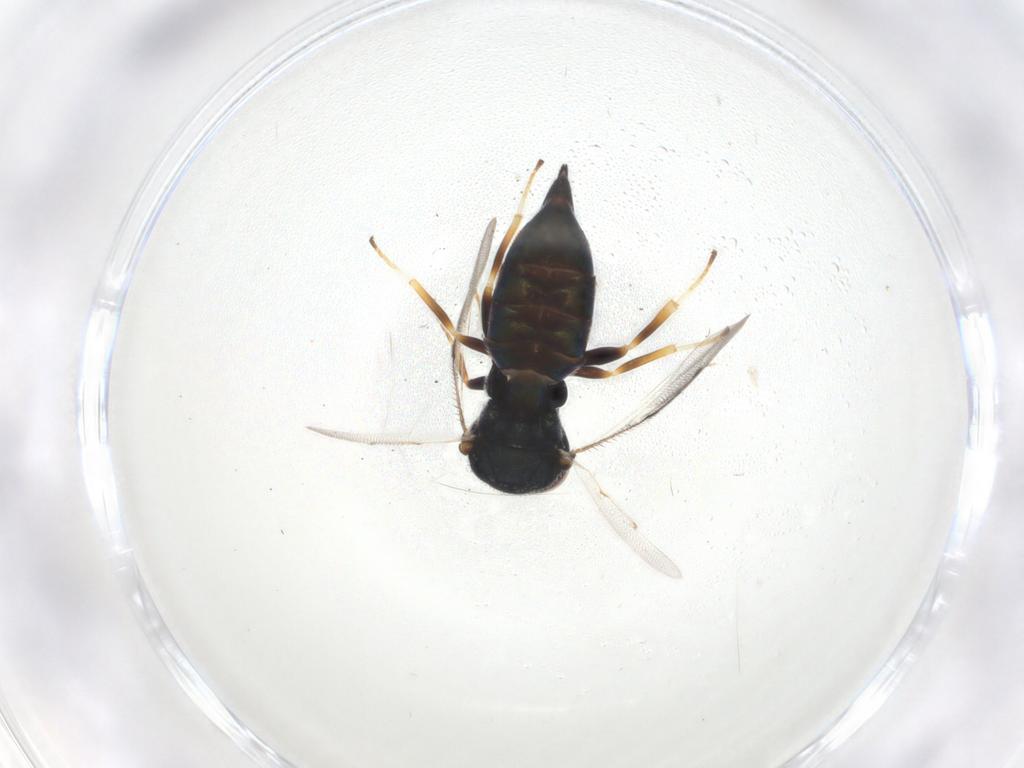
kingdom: Animalia
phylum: Arthropoda
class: Insecta
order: Hymenoptera
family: Pteromalidae
